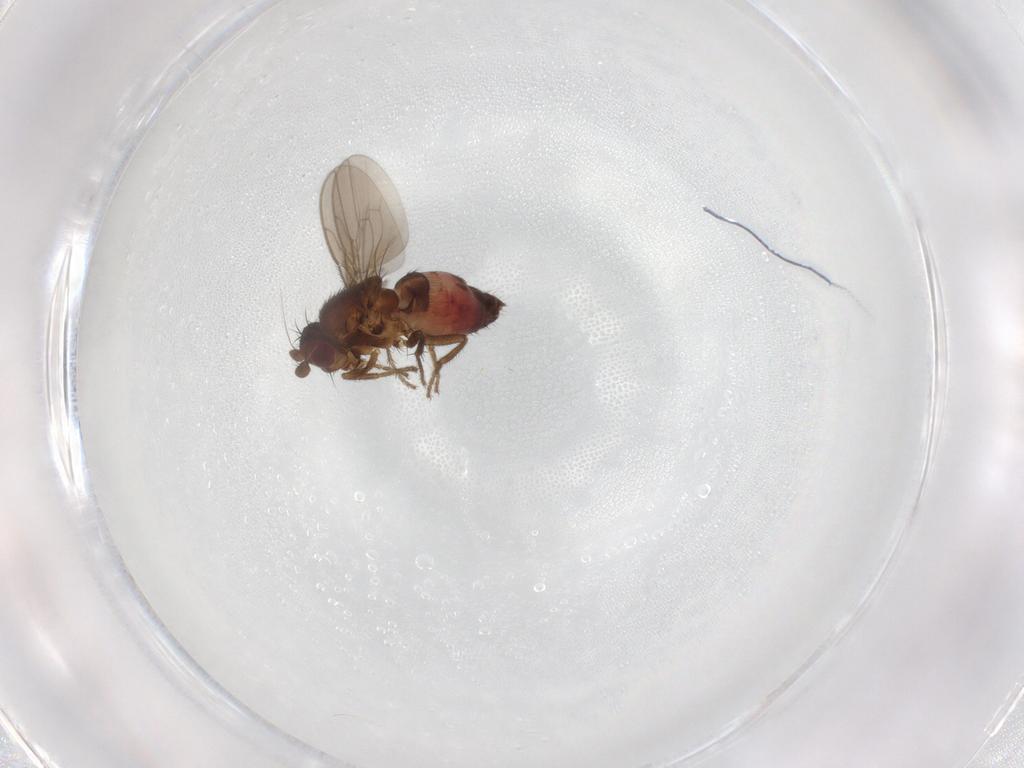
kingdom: Animalia
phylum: Arthropoda
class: Insecta
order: Diptera
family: Sphaeroceridae
